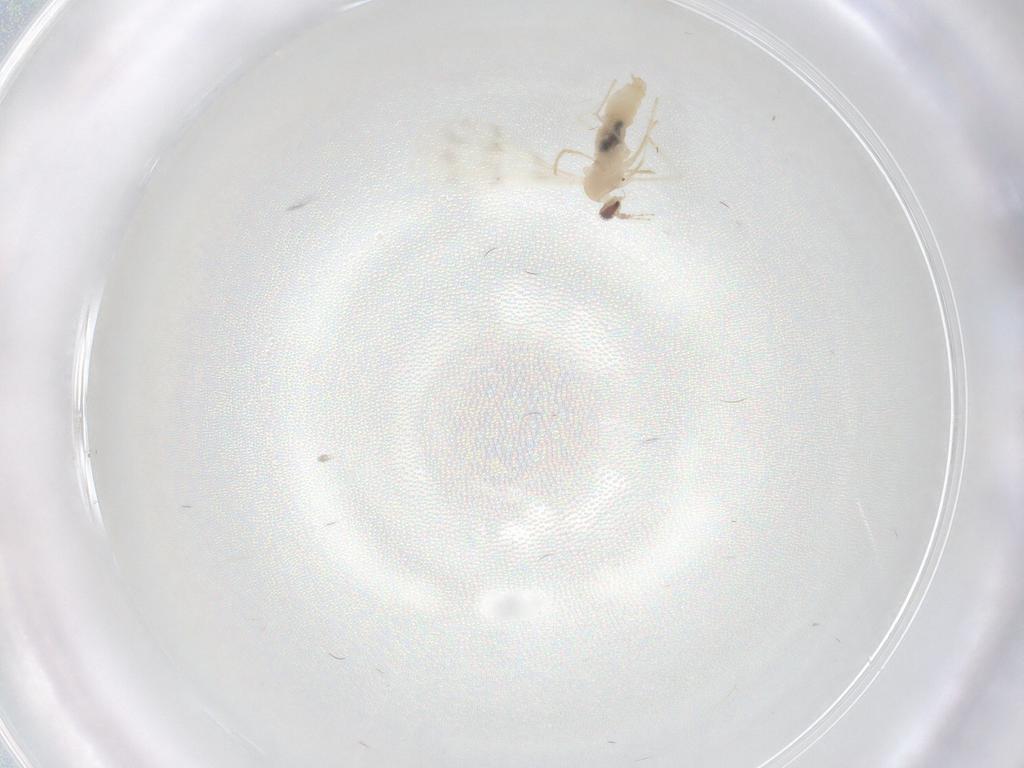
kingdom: Animalia
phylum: Arthropoda
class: Insecta
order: Diptera
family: Chironomidae
